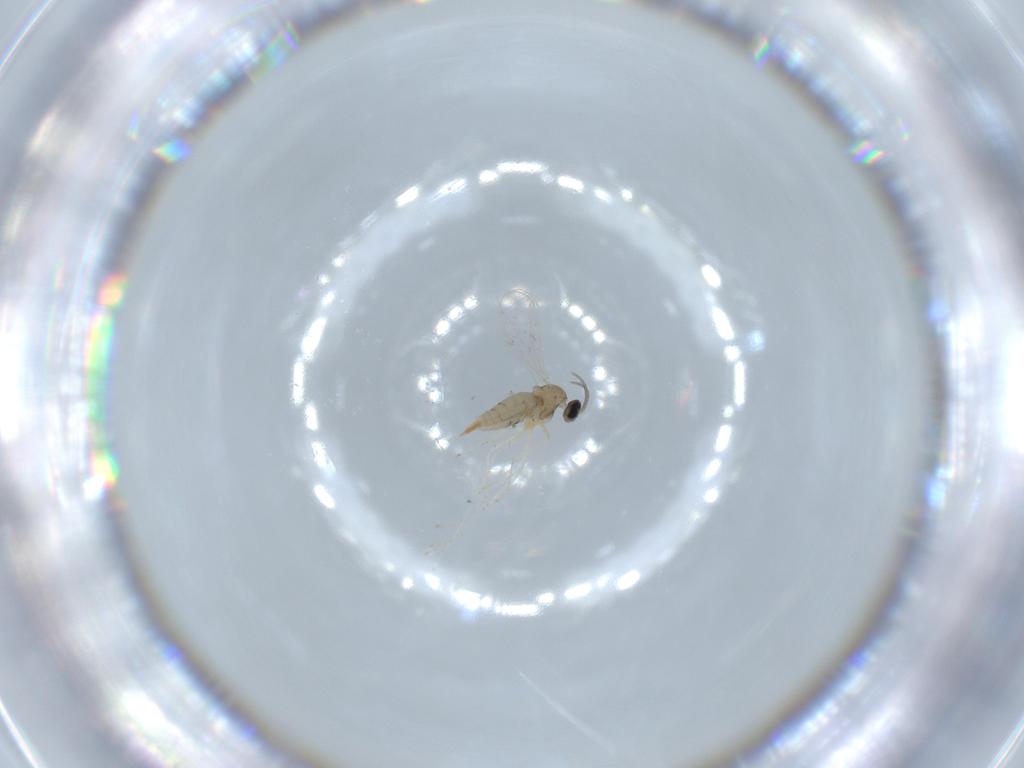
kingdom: Animalia
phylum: Arthropoda
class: Insecta
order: Diptera
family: Cecidomyiidae
